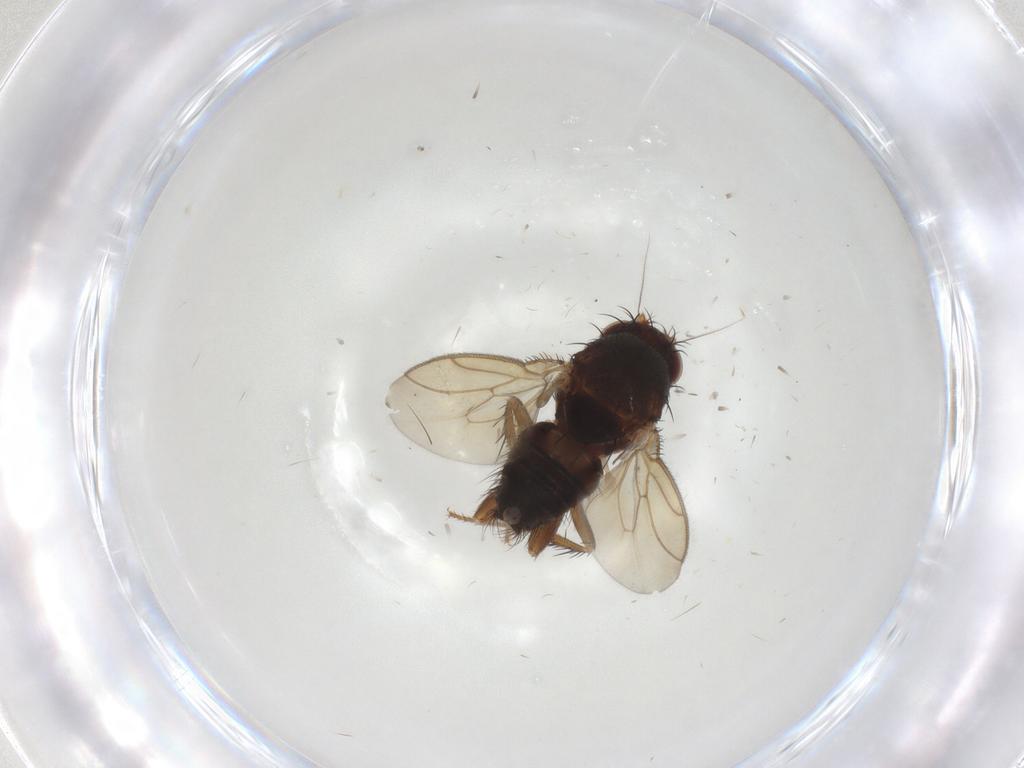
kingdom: Animalia
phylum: Arthropoda
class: Insecta
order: Diptera
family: Sphaeroceridae
